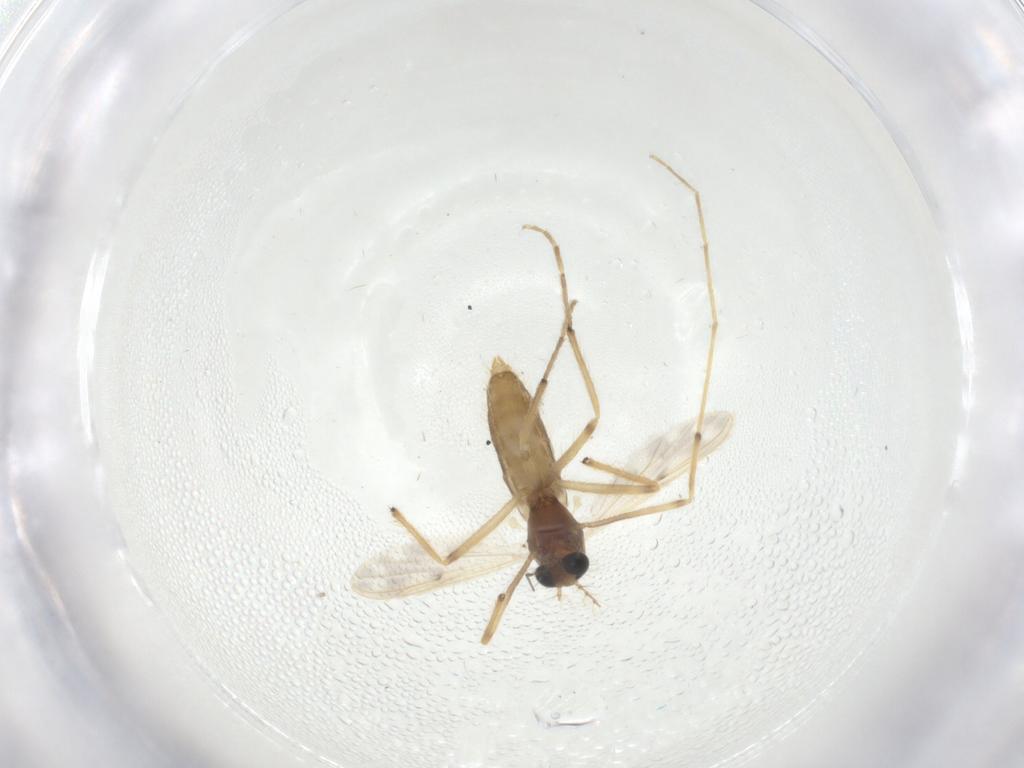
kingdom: Animalia
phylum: Arthropoda
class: Insecta
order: Diptera
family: Chironomidae
